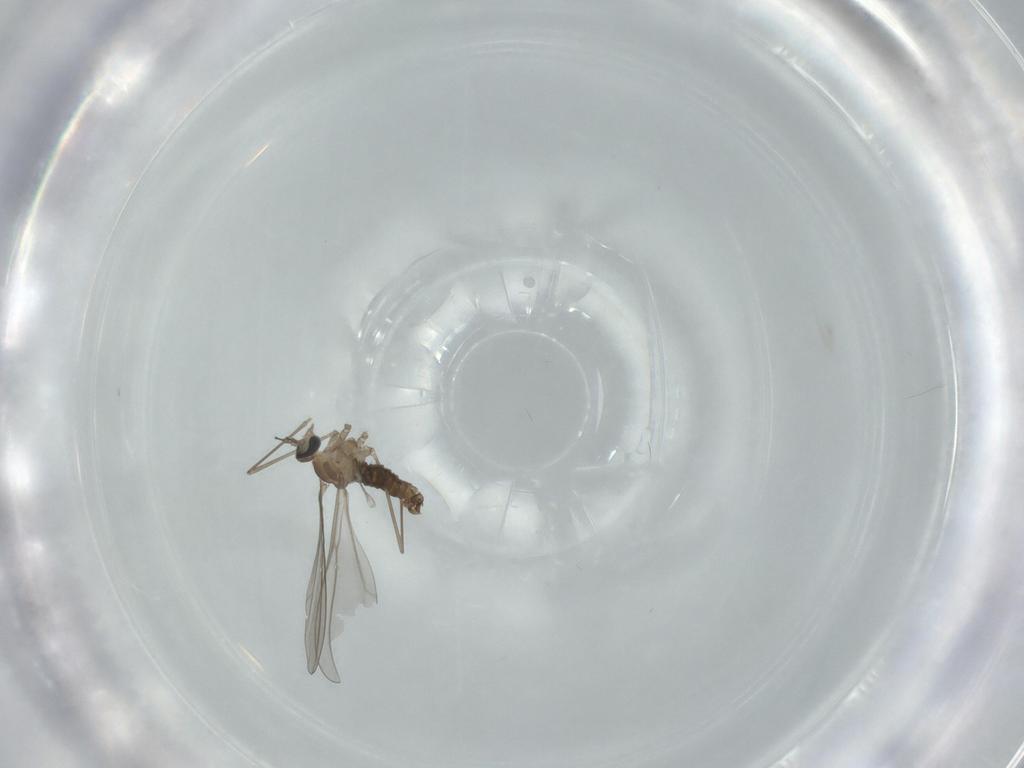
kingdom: Animalia
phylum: Arthropoda
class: Insecta
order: Diptera
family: Cecidomyiidae
